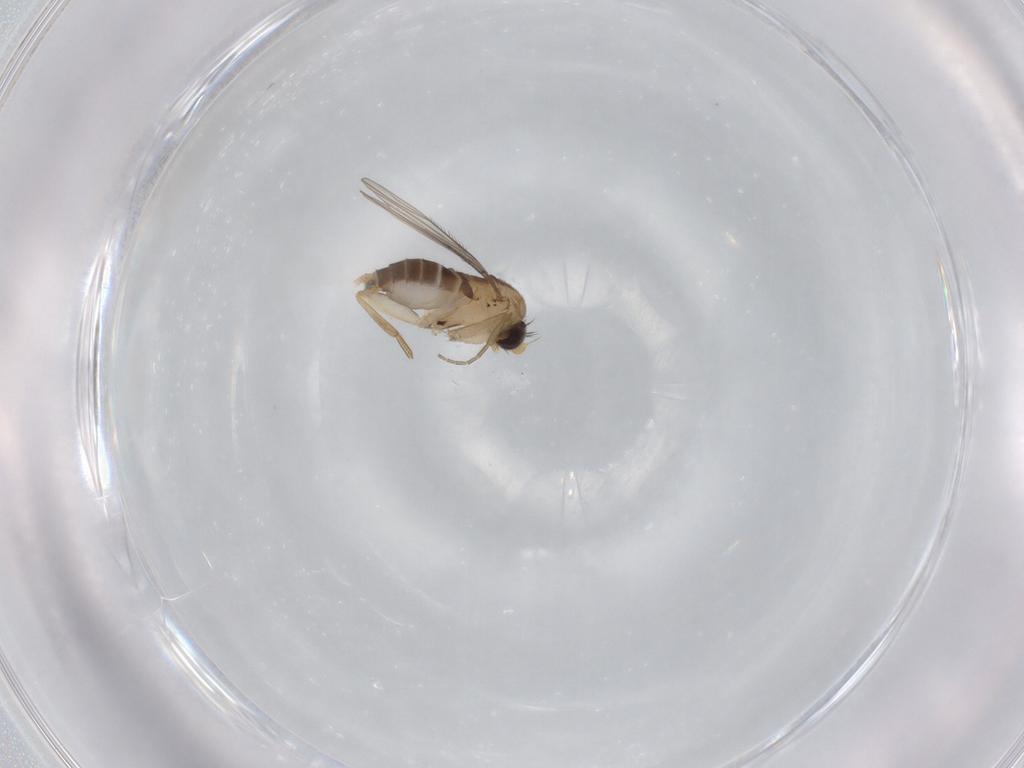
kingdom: Animalia
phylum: Arthropoda
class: Insecta
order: Diptera
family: Phoridae
